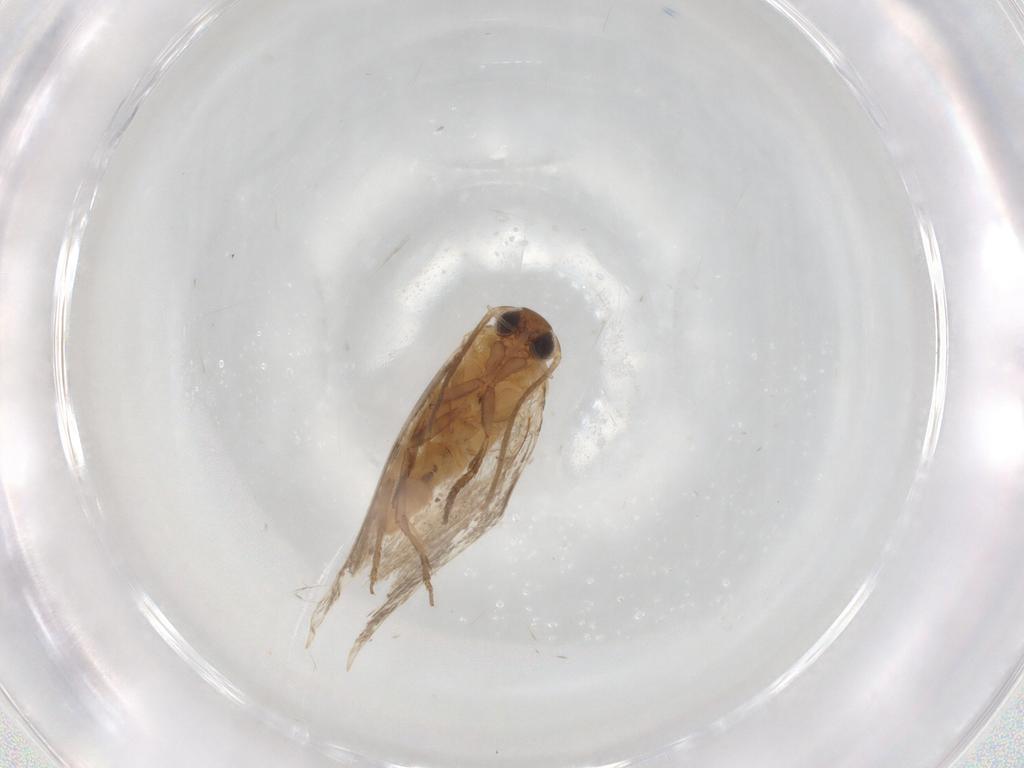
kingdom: Animalia
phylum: Arthropoda
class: Insecta
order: Lepidoptera
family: Elachistidae
